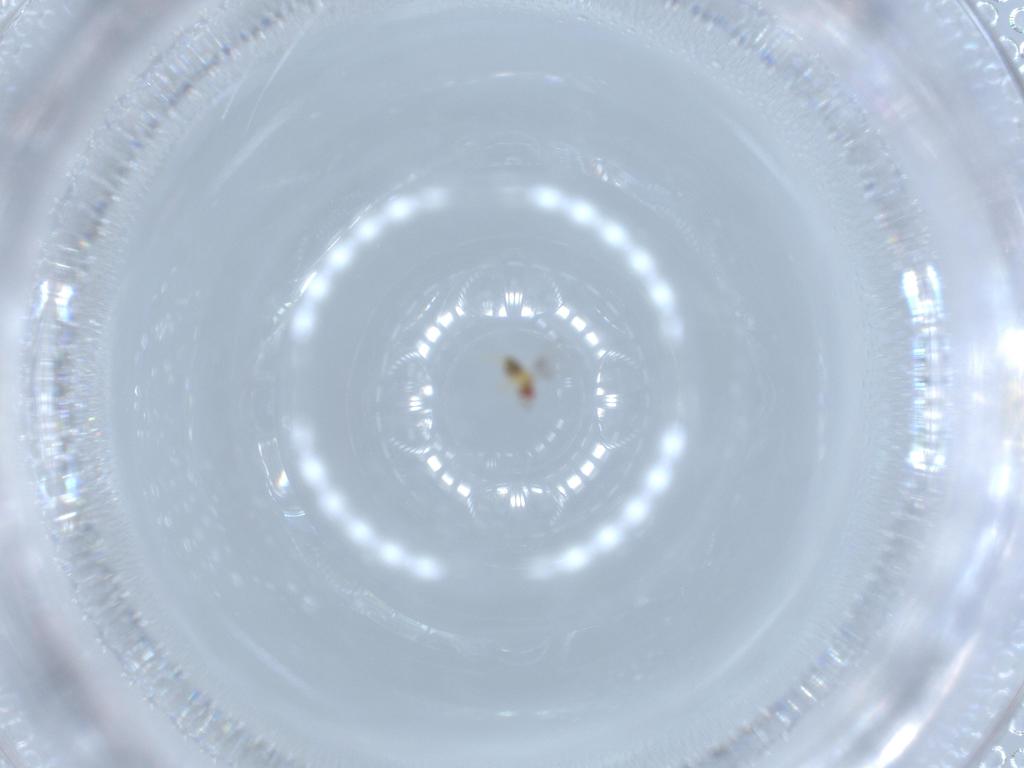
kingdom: Animalia
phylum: Arthropoda
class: Insecta
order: Hymenoptera
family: Trichogrammatidae
